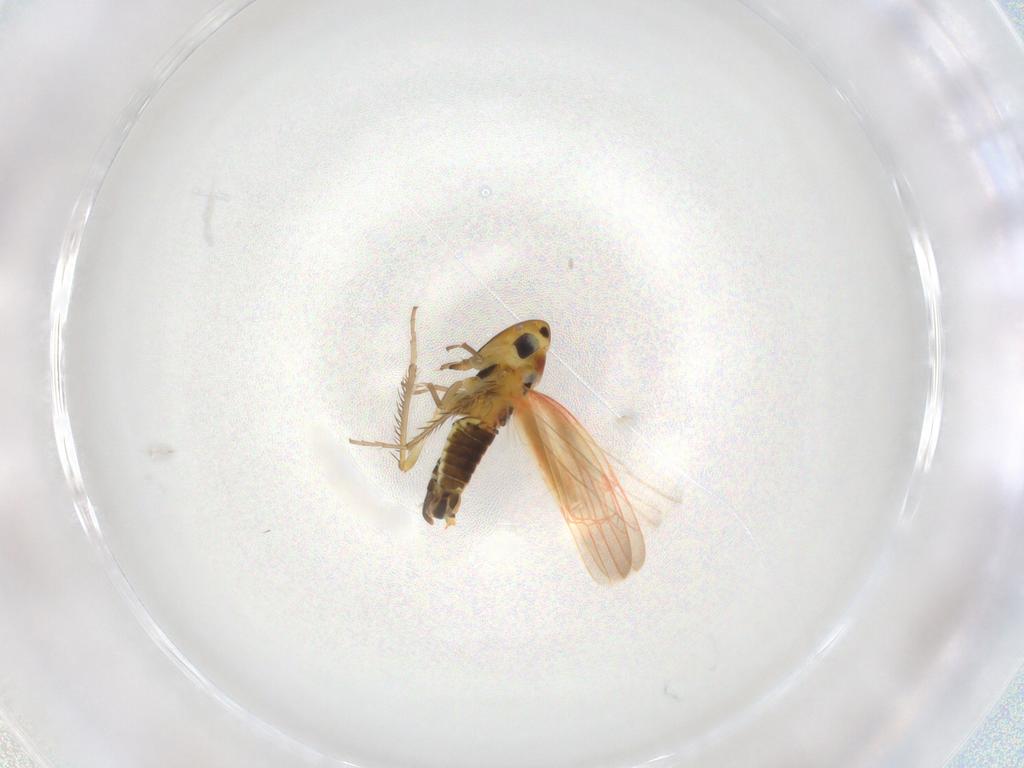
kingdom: Animalia
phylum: Arthropoda
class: Insecta
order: Hemiptera
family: Cicadellidae
